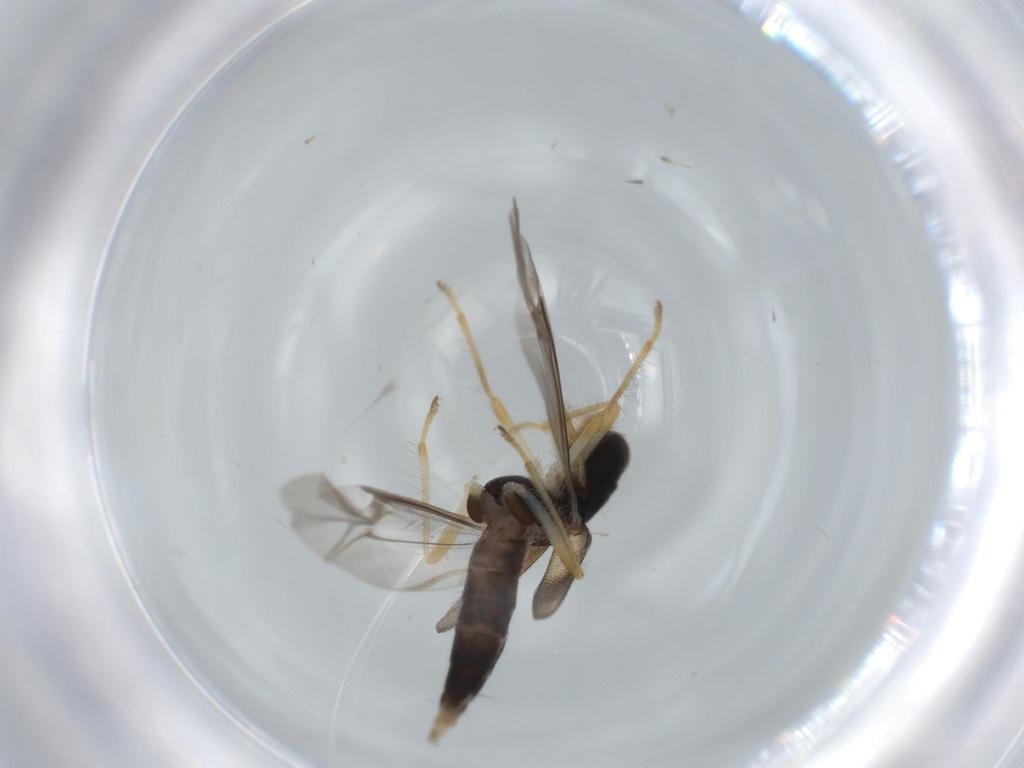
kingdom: Animalia
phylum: Arthropoda
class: Insecta
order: Coleoptera
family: Cleridae
